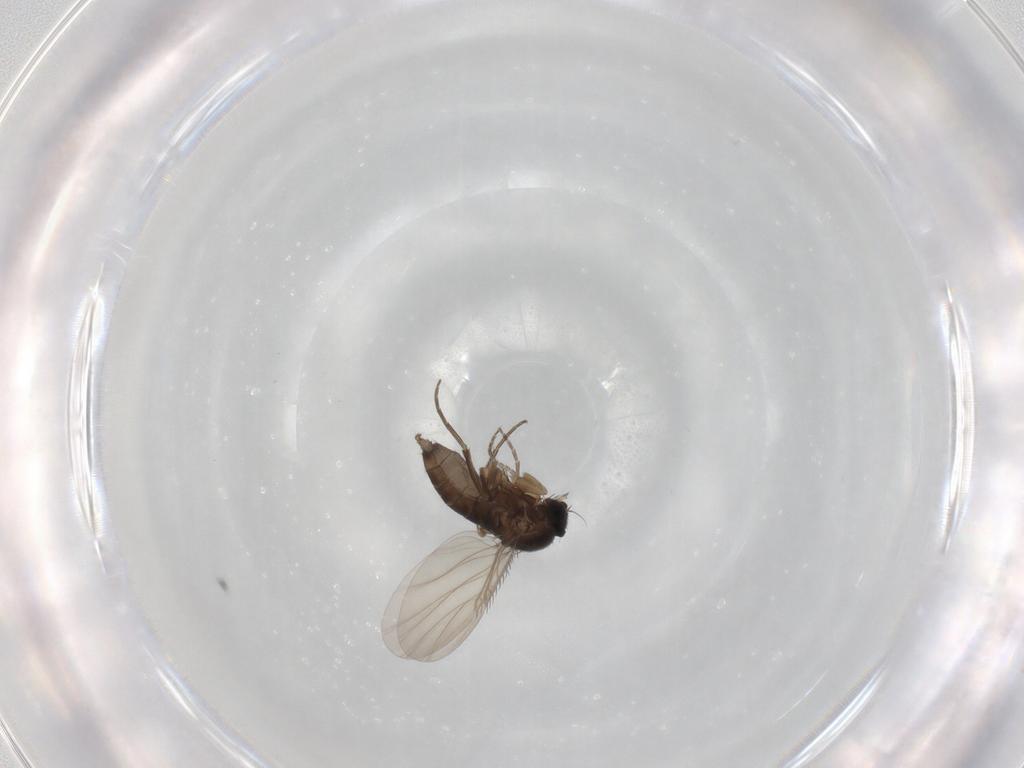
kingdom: Animalia
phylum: Arthropoda
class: Insecta
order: Diptera
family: Phoridae
